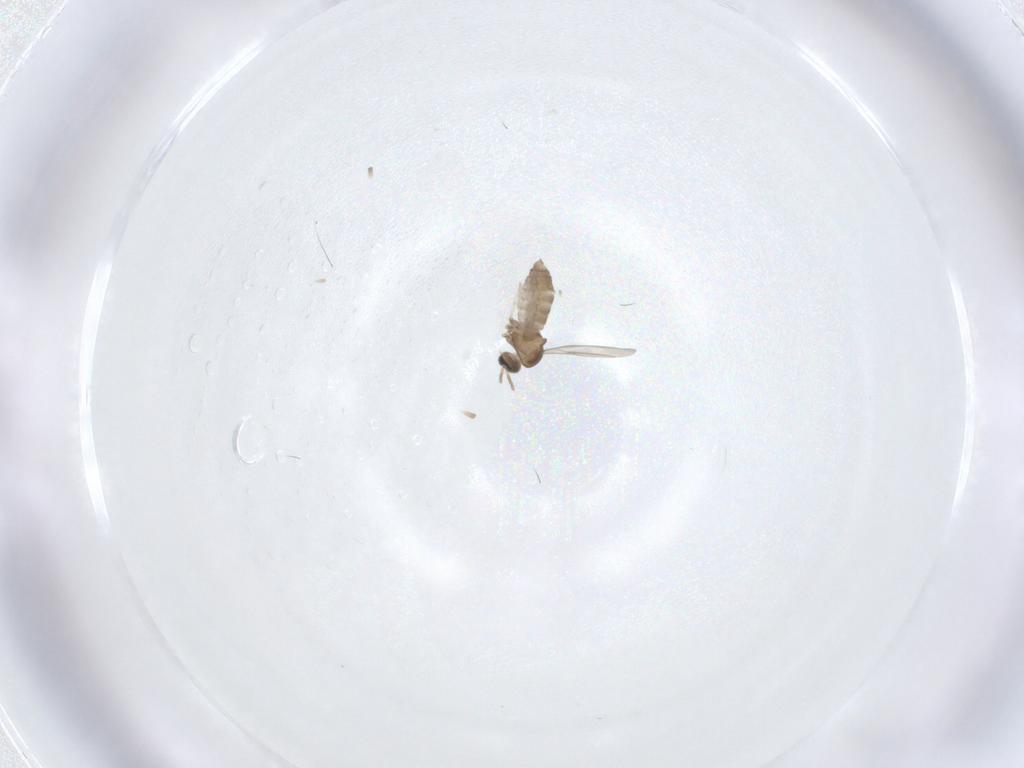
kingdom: Animalia
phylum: Arthropoda
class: Insecta
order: Diptera
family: Cecidomyiidae
